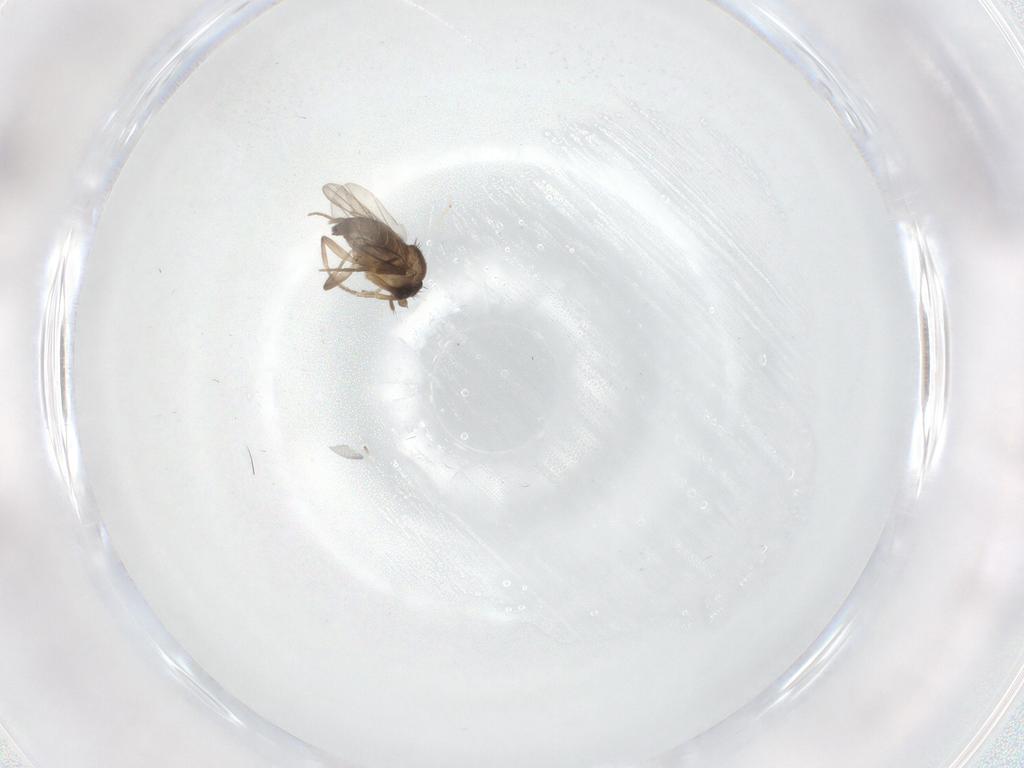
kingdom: Animalia
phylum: Arthropoda
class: Insecta
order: Diptera
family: Phoridae
